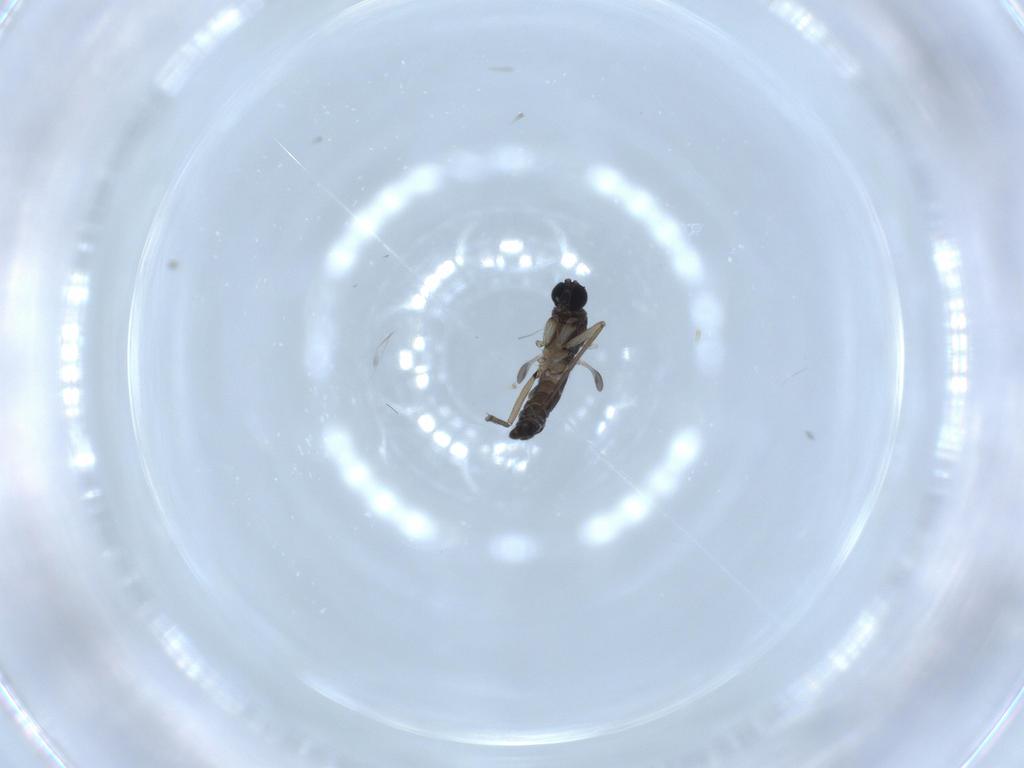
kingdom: Animalia
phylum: Arthropoda
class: Insecta
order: Diptera
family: Sciaridae
